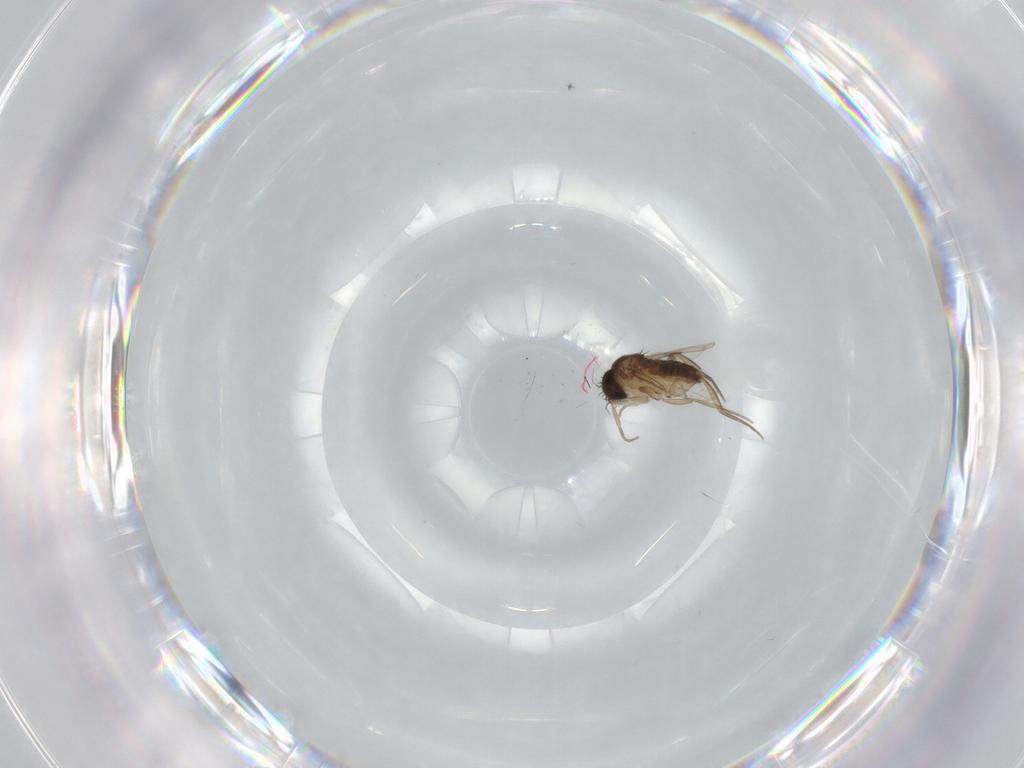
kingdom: Animalia
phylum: Arthropoda
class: Insecta
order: Diptera
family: Phoridae
